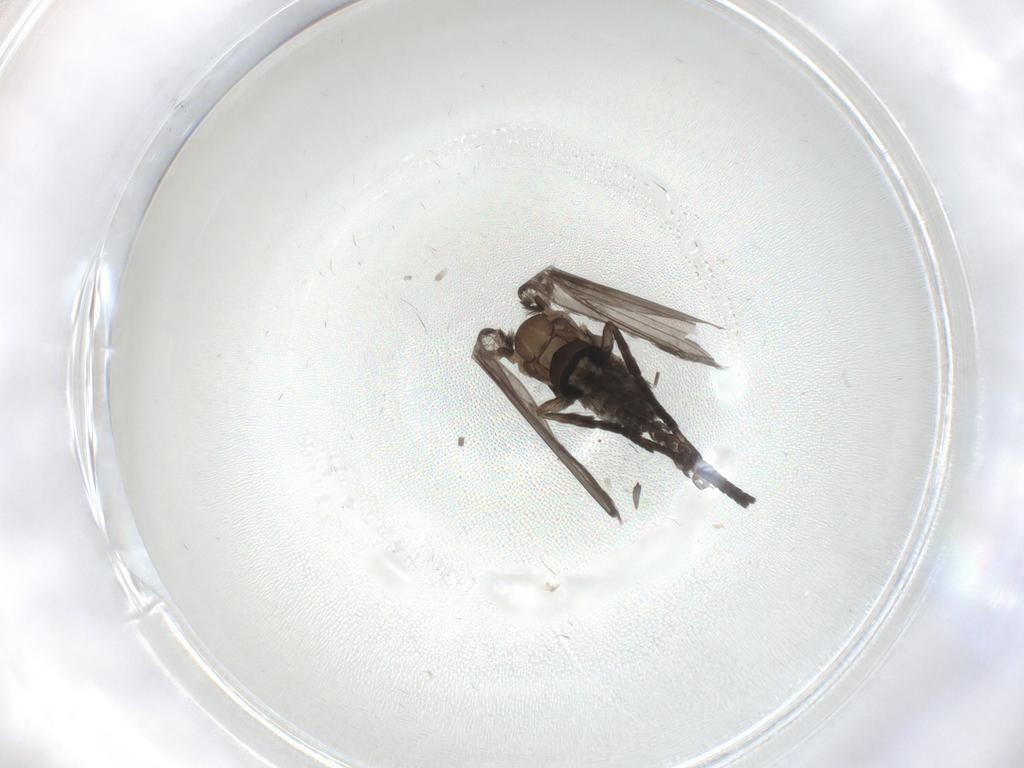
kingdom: Animalia
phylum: Arthropoda
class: Insecta
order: Diptera
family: Psychodidae
